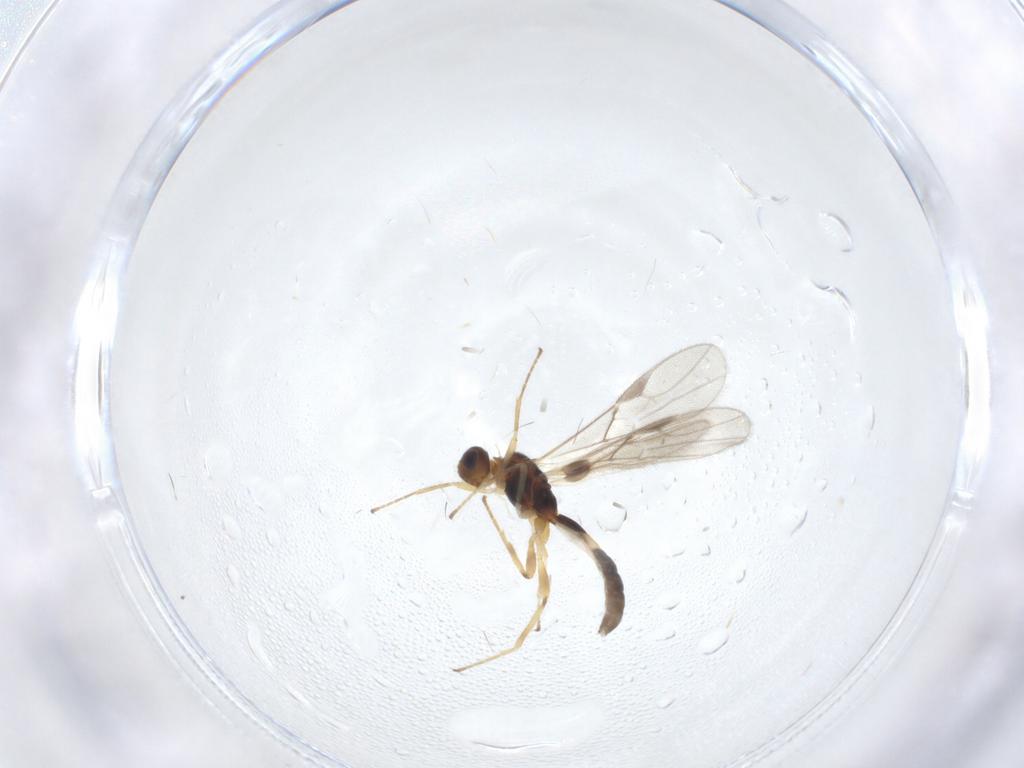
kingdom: Animalia
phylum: Arthropoda
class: Insecta
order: Hymenoptera
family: Braconidae
